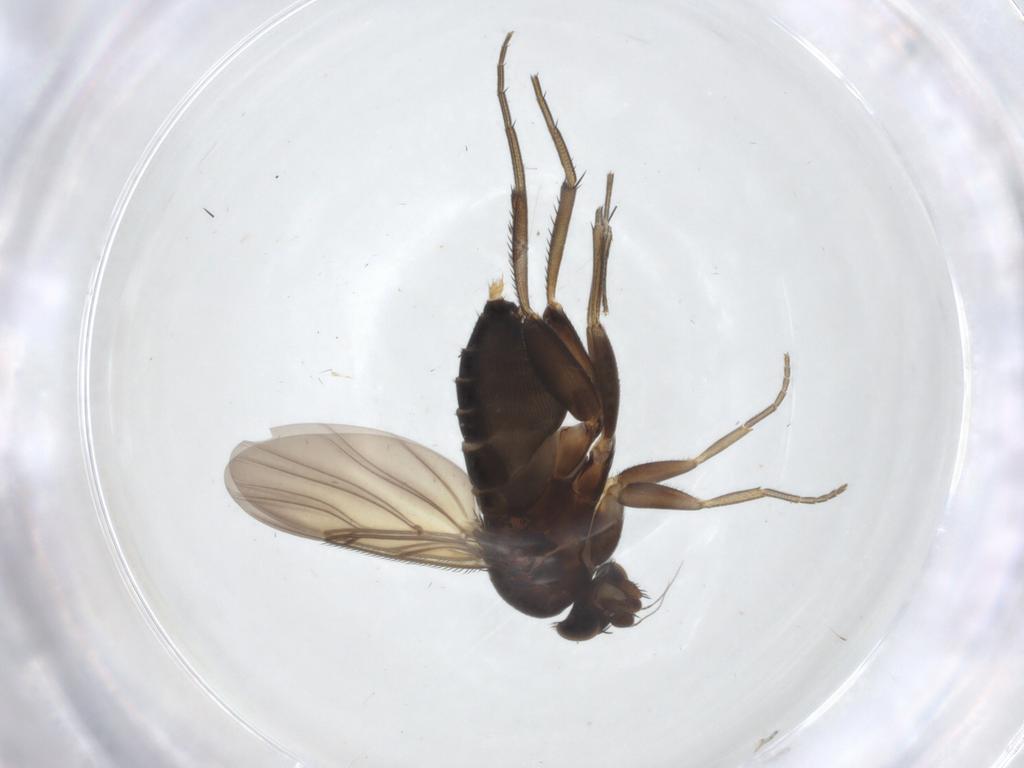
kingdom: Animalia
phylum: Arthropoda
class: Insecta
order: Diptera
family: Phoridae
